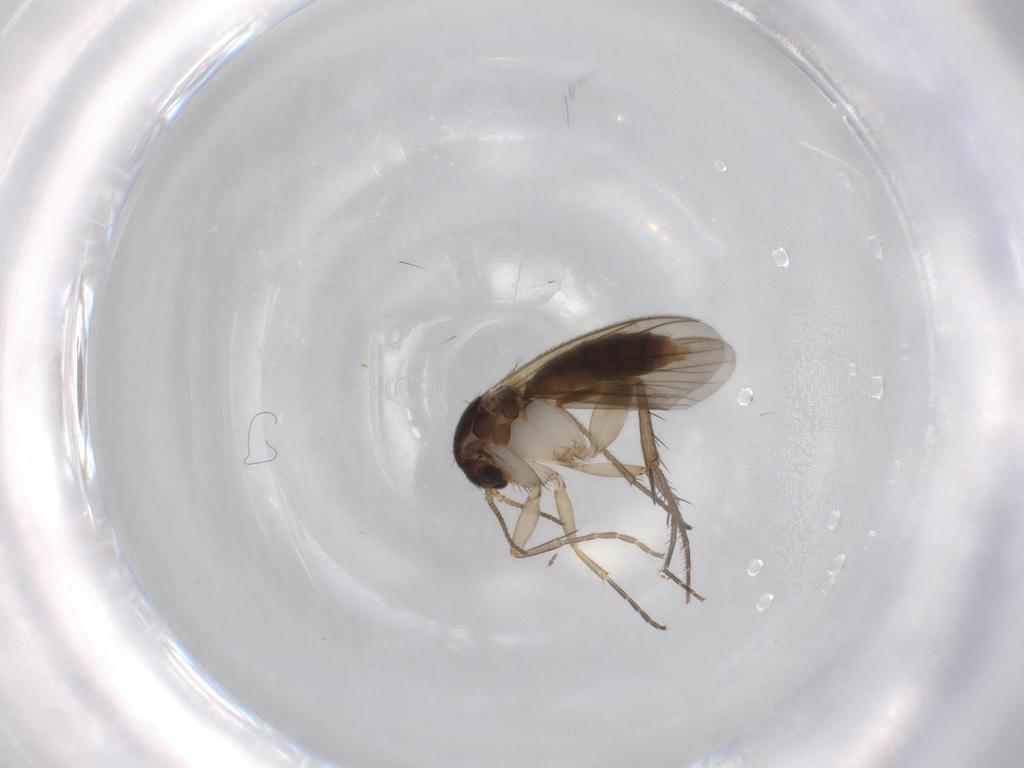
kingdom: Animalia
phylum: Arthropoda
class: Insecta
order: Diptera
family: Sciaridae
